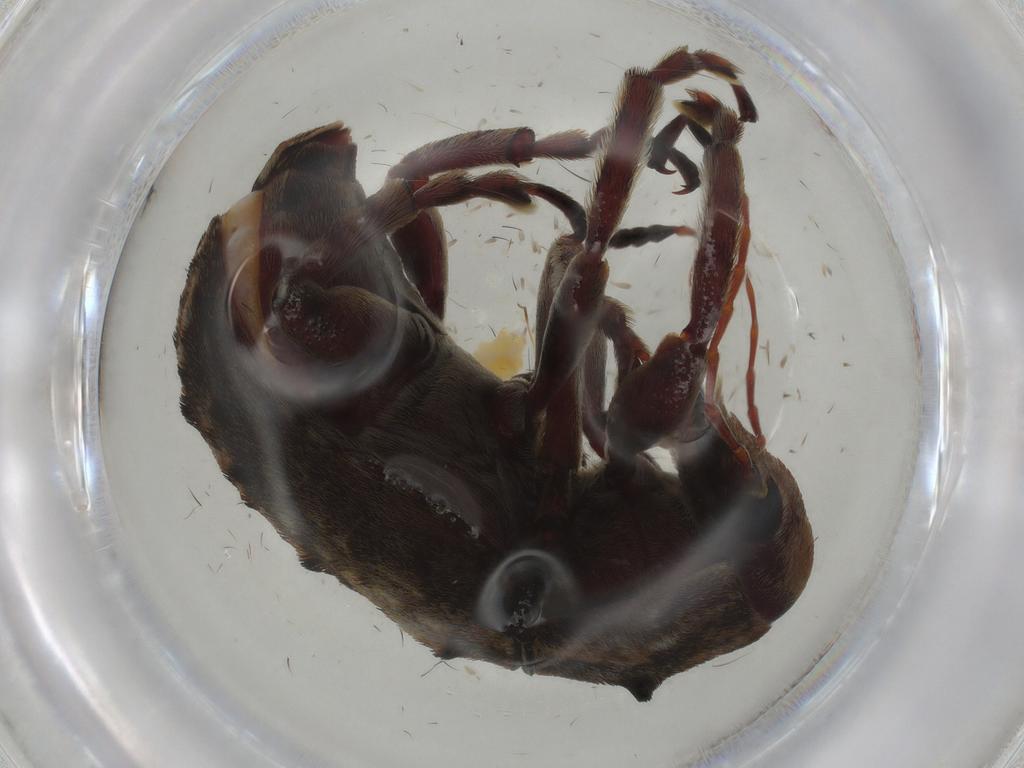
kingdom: Animalia
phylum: Arthropoda
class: Insecta
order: Coleoptera
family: Anthribidae
